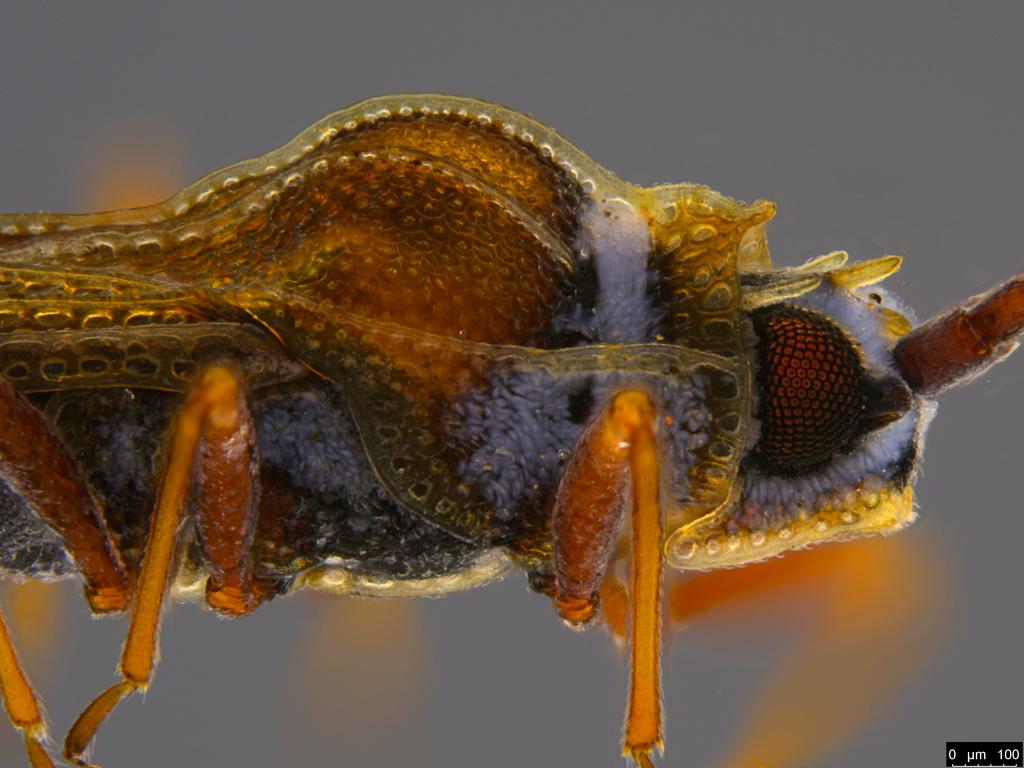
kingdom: Animalia
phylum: Arthropoda
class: Insecta
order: Hemiptera
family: Tingidae
